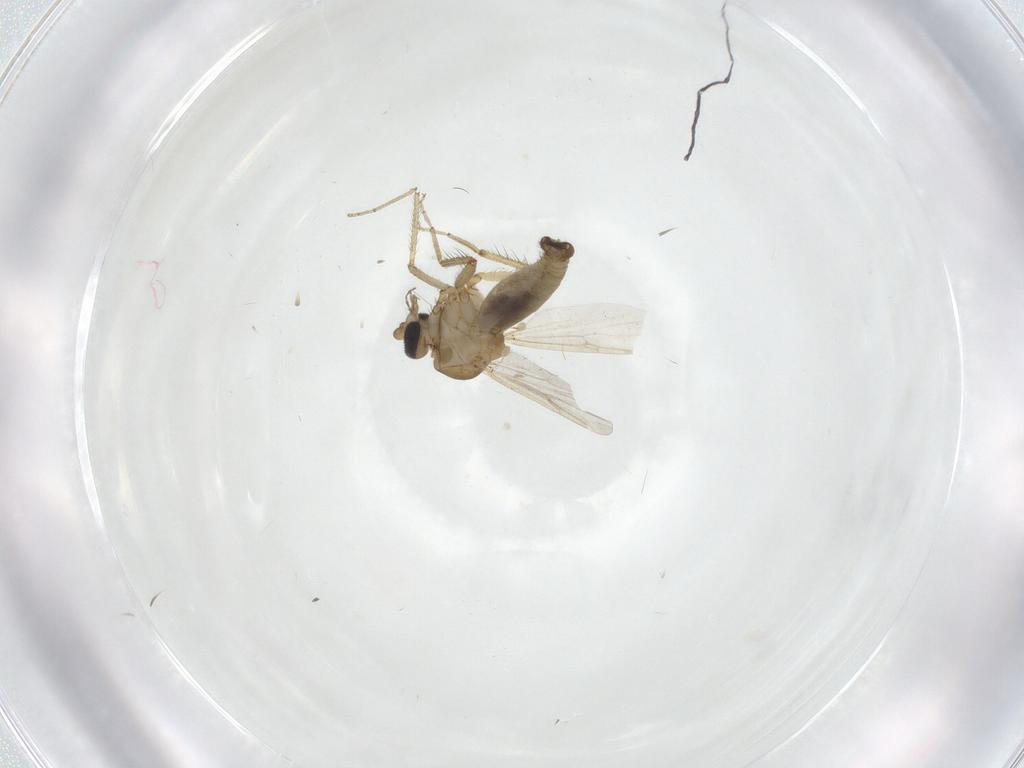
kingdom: Animalia
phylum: Arthropoda
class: Insecta
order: Diptera
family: Ceratopogonidae
